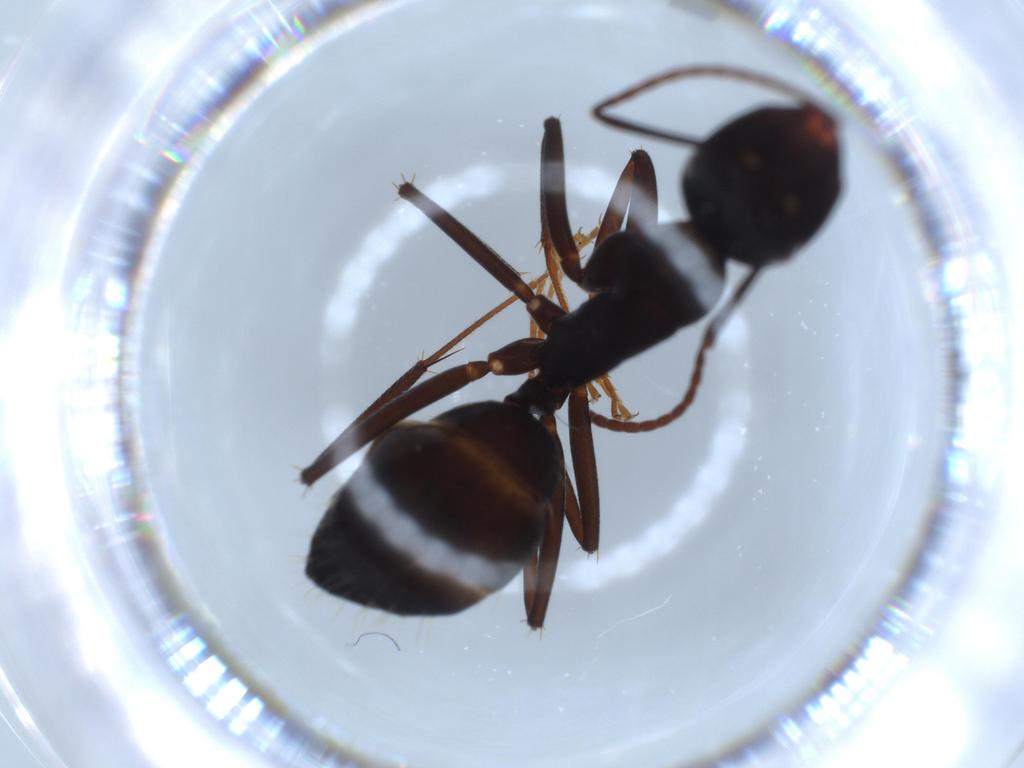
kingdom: Animalia
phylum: Arthropoda
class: Insecta
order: Hymenoptera
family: Formicidae
